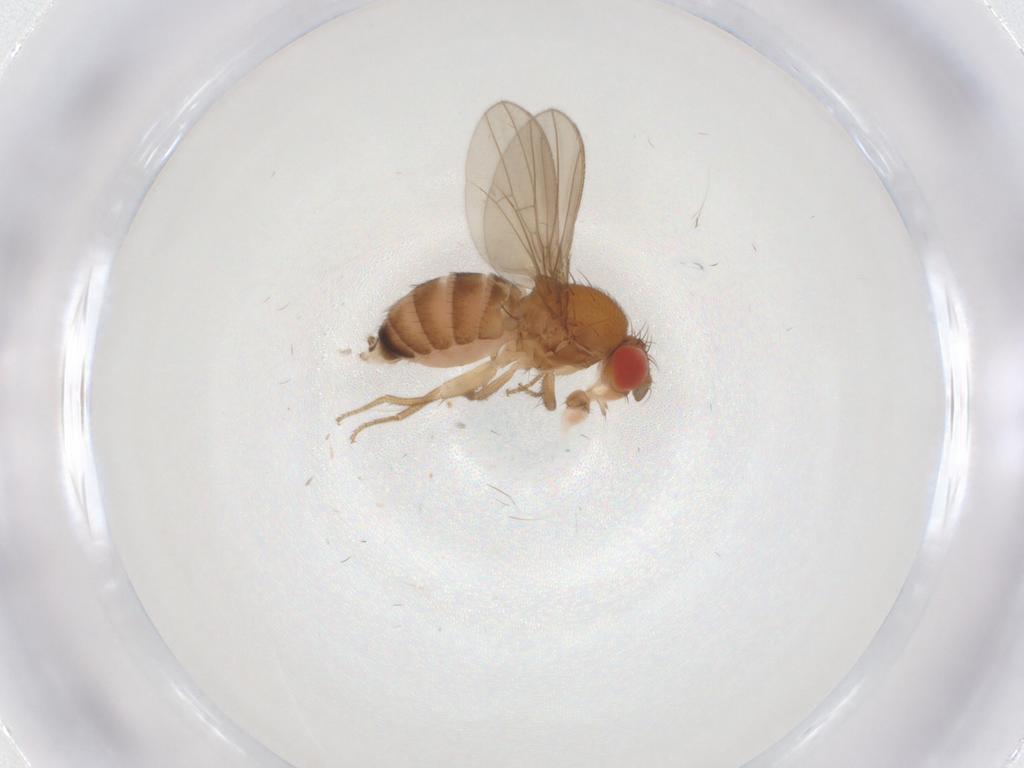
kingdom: Animalia
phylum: Arthropoda
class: Insecta
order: Diptera
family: Drosophilidae
